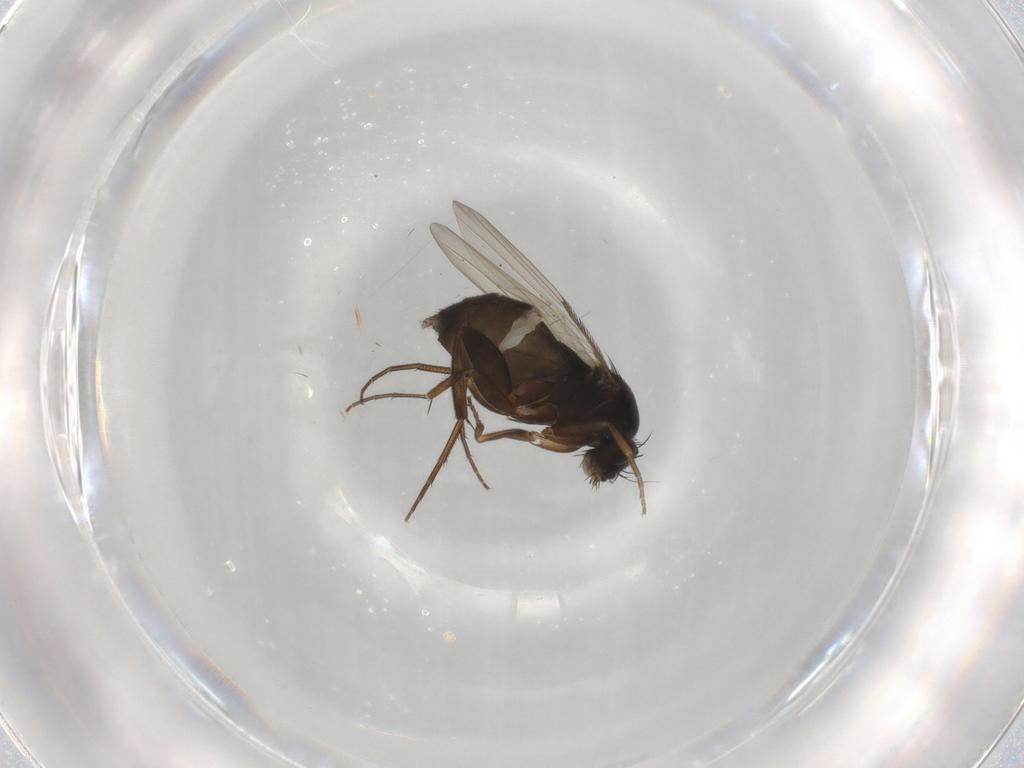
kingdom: Animalia
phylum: Arthropoda
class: Insecta
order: Diptera
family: Phoridae
